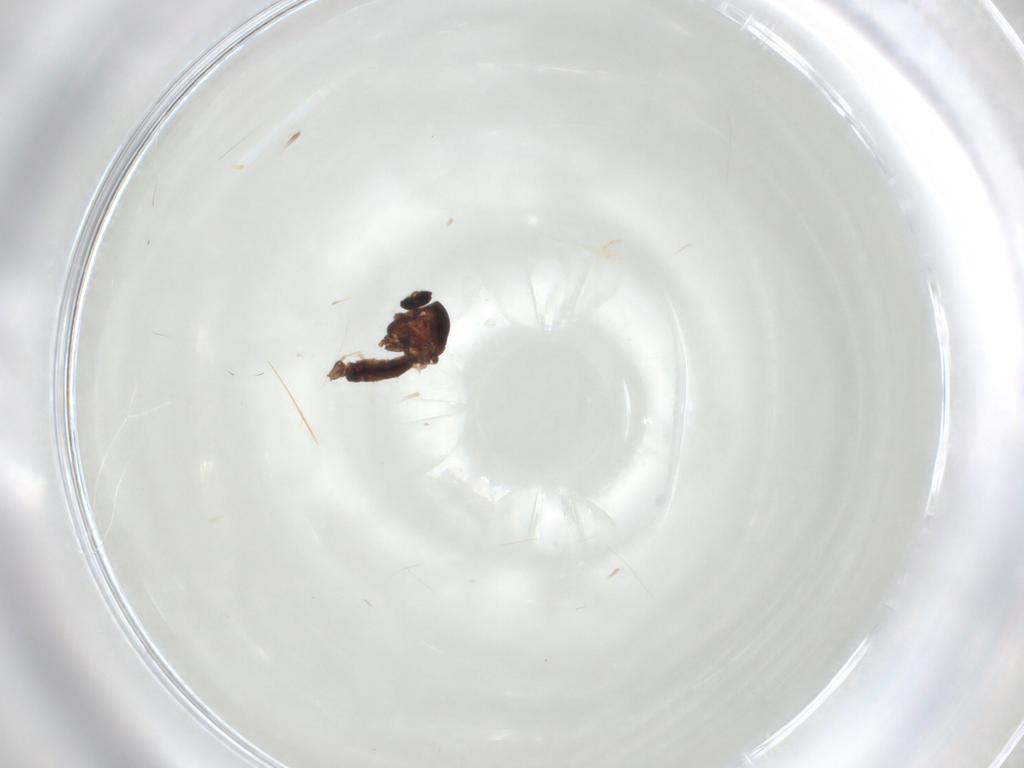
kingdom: Animalia
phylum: Arthropoda
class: Insecta
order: Diptera
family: Ceratopogonidae
